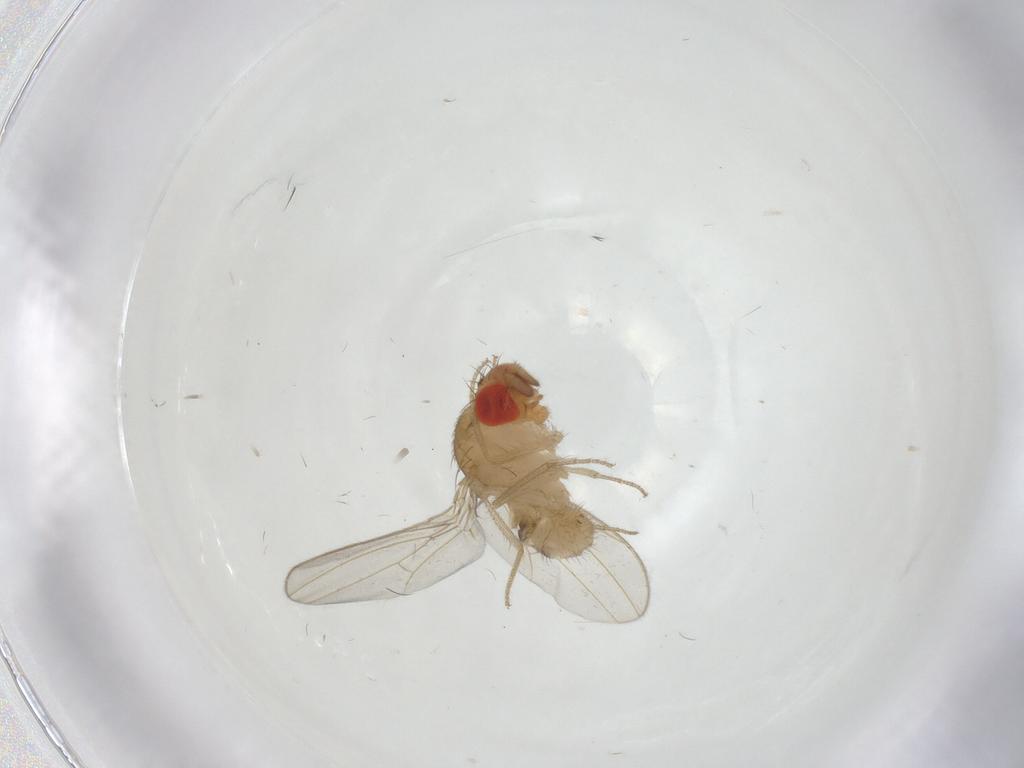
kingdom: Animalia
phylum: Arthropoda
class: Insecta
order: Diptera
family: Drosophilidae
